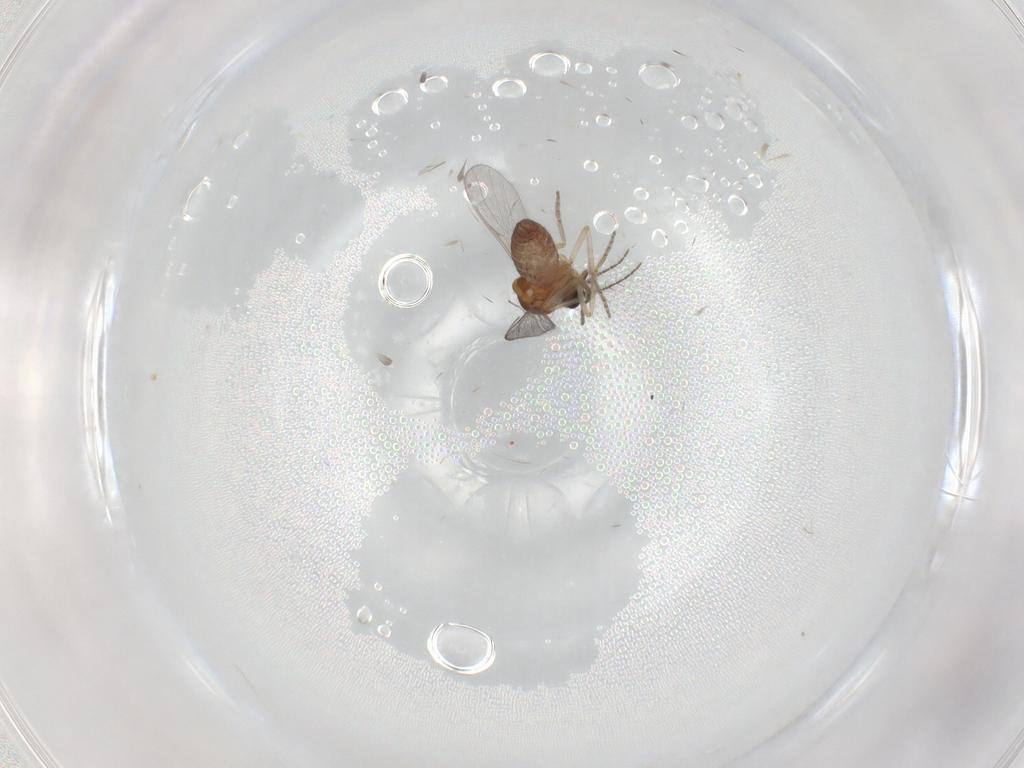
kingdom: Animalia
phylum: Arthropoda
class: Insecta
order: Diptera
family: Ceratopogonidae
